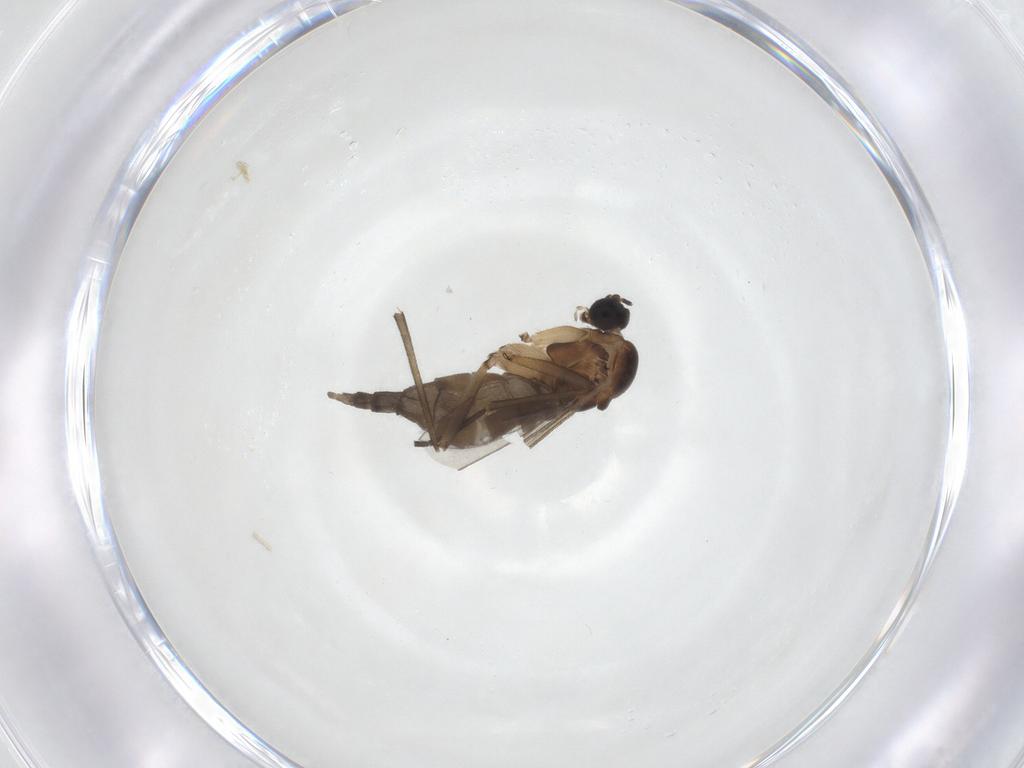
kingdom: Animalia
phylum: Arthropoda
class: Insecta
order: Diptera
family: Sciaridae
